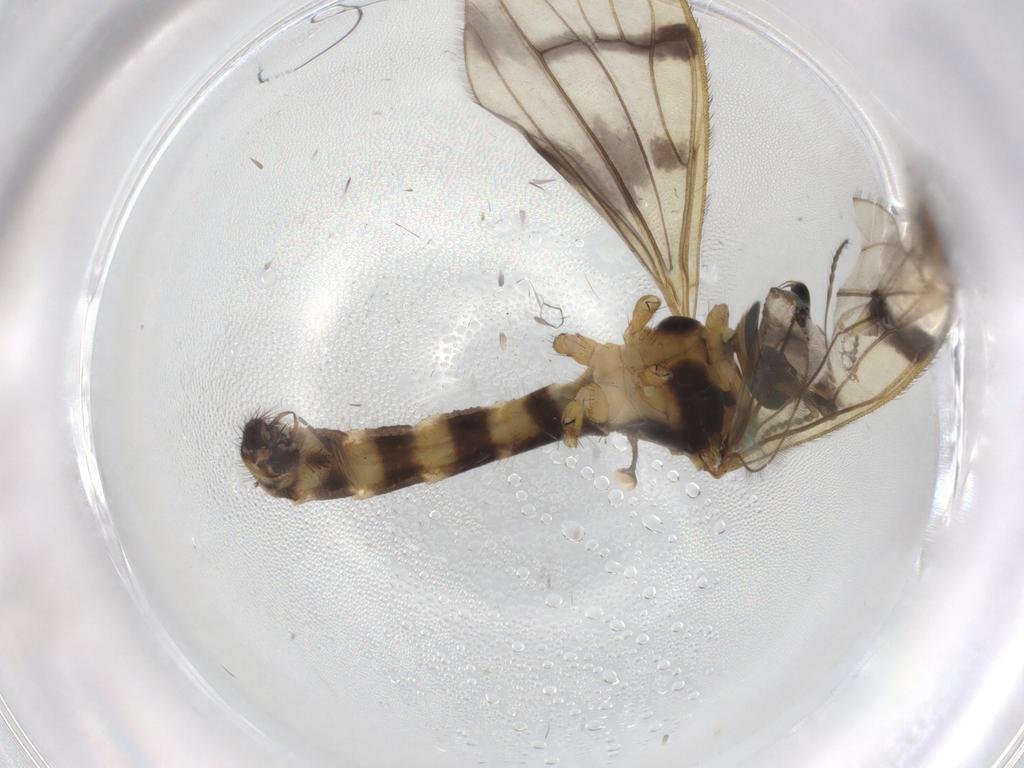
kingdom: Animalia
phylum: Arthropoda
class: Insecta
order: Diptera
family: Limoniidae
